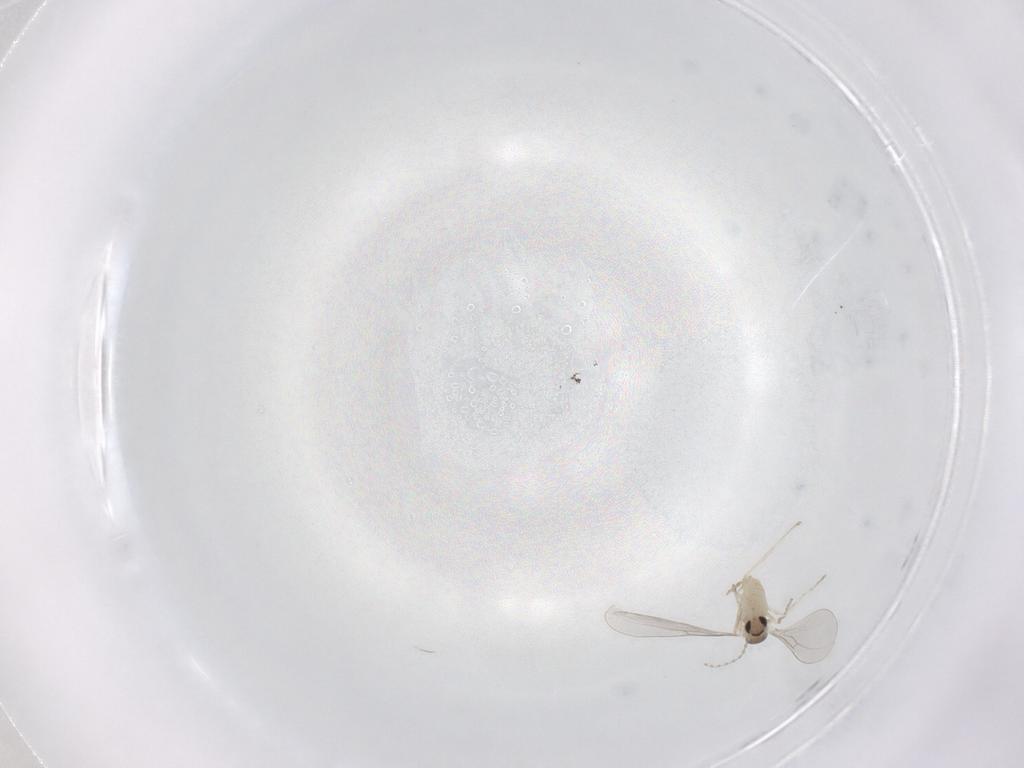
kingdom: Animalia
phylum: Arthropoda
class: Insecta
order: Diptera
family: Cecidomyiidae
